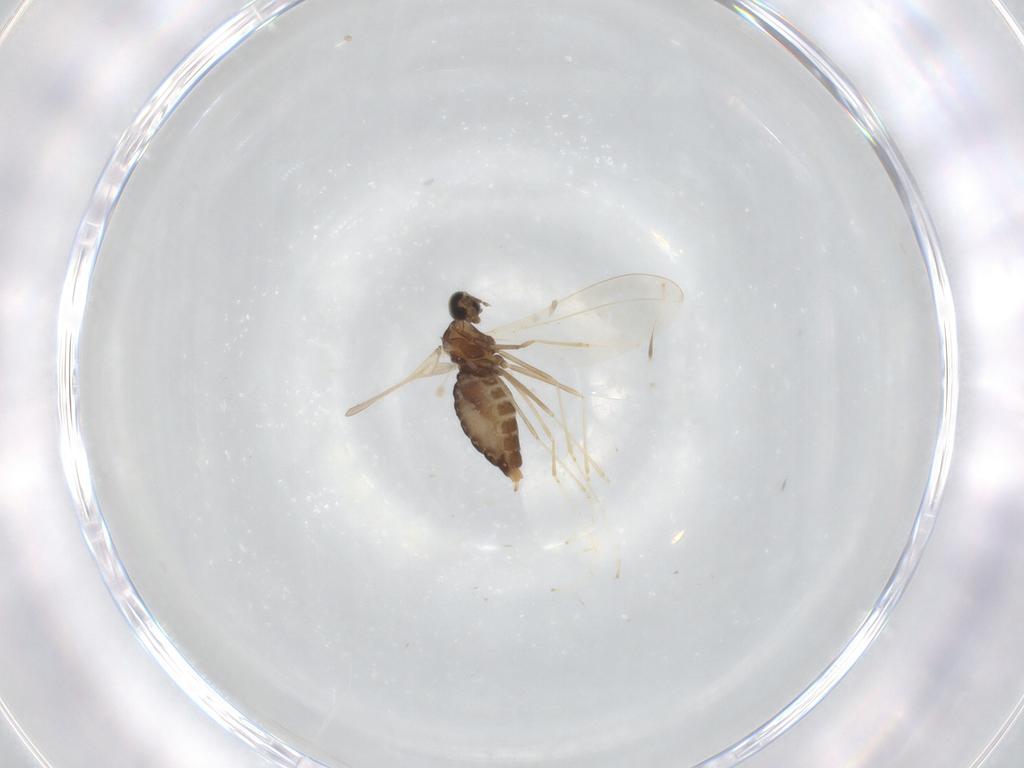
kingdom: Animalia
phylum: Arthropoda
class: Insecta
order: Diptera
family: Cecidomyiidae
